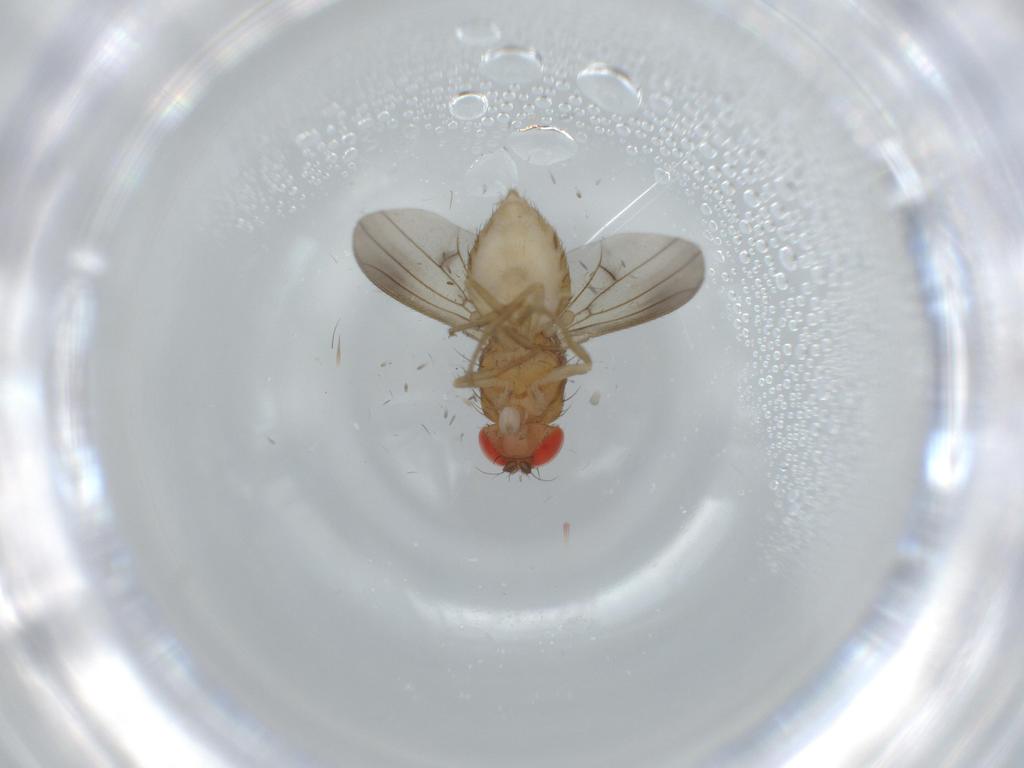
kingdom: Animalia
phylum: Arthropoda
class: Insecta
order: Diptera
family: Drosophilidae
